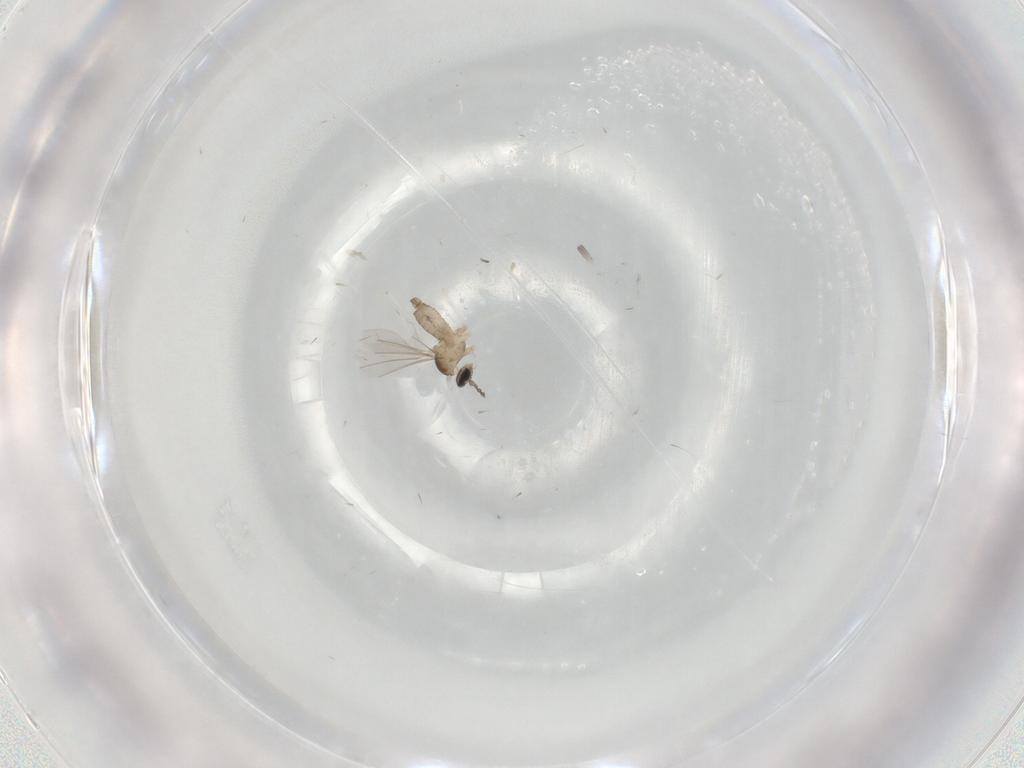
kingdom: Animalia
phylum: Arthropoda
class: Insecta
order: Diptera
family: Cecidomyiidae
